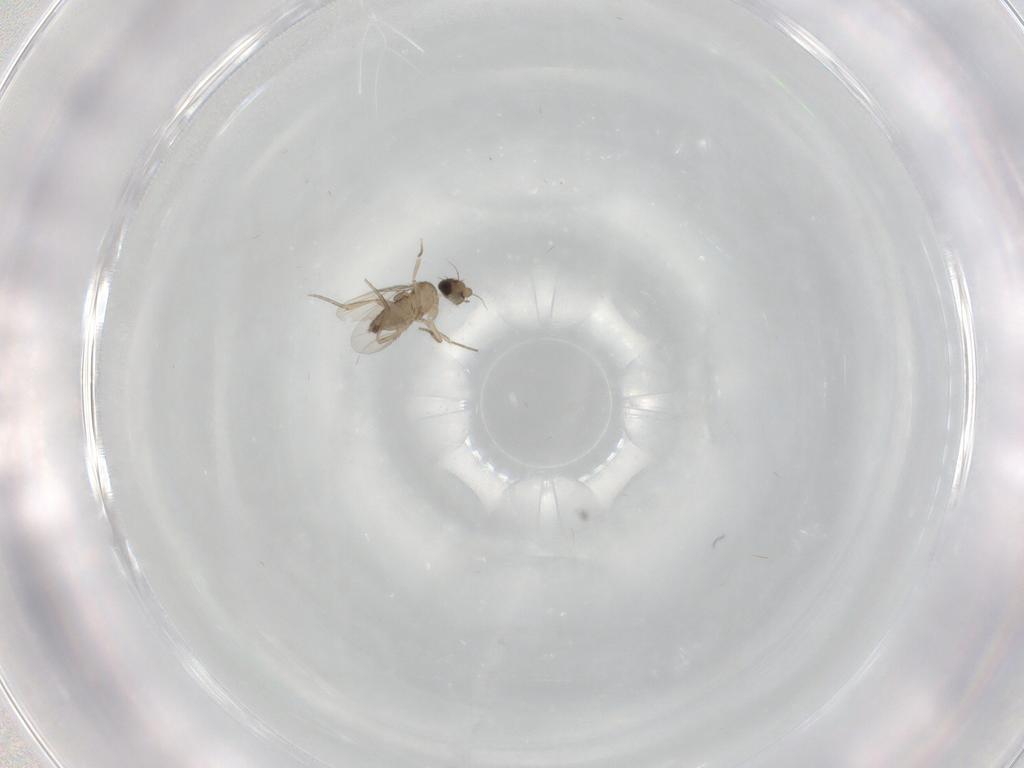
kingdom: Animalia
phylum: Arthropoda
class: Insecta
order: Diptera
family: Phoridae
